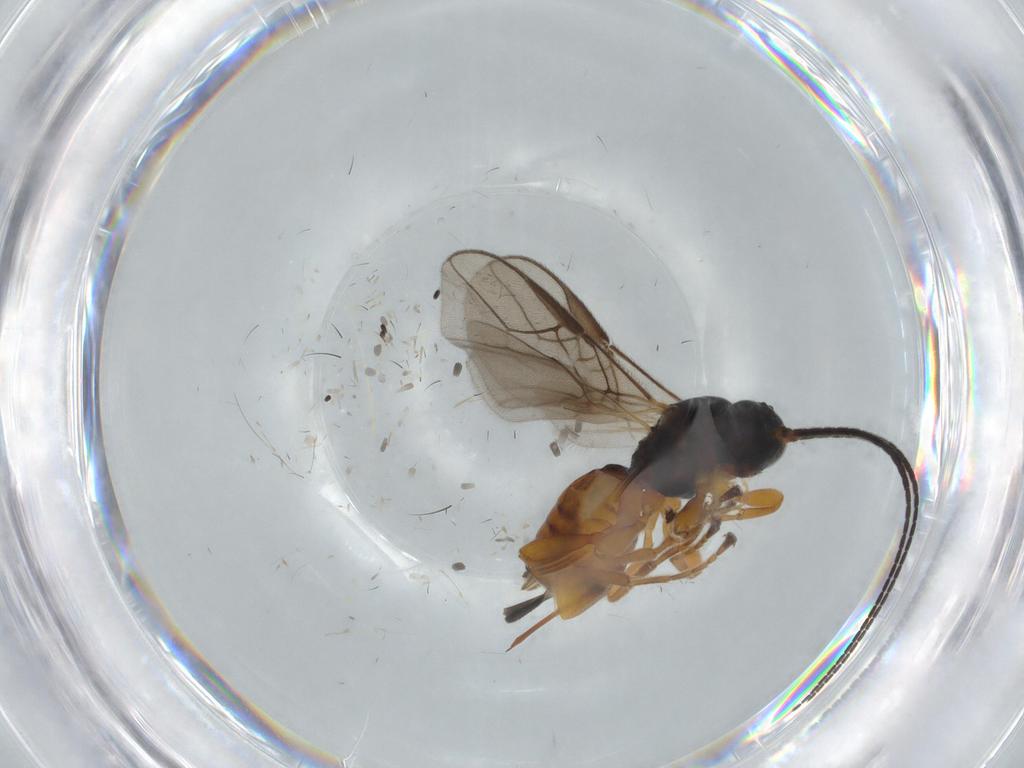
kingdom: Animalia
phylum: Arthropoda
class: Insecta
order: Hymenoptera
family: Braconidae
